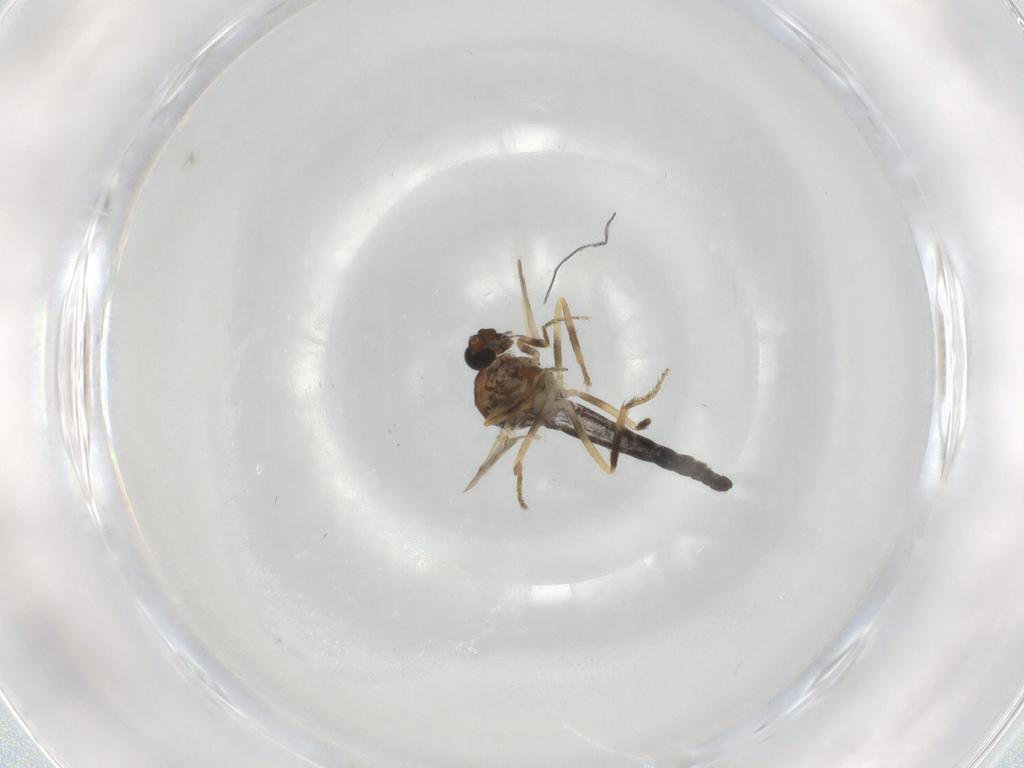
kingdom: Animalia
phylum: Arthropoda
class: Insecta
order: Diptera
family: Ceratopogonidae
